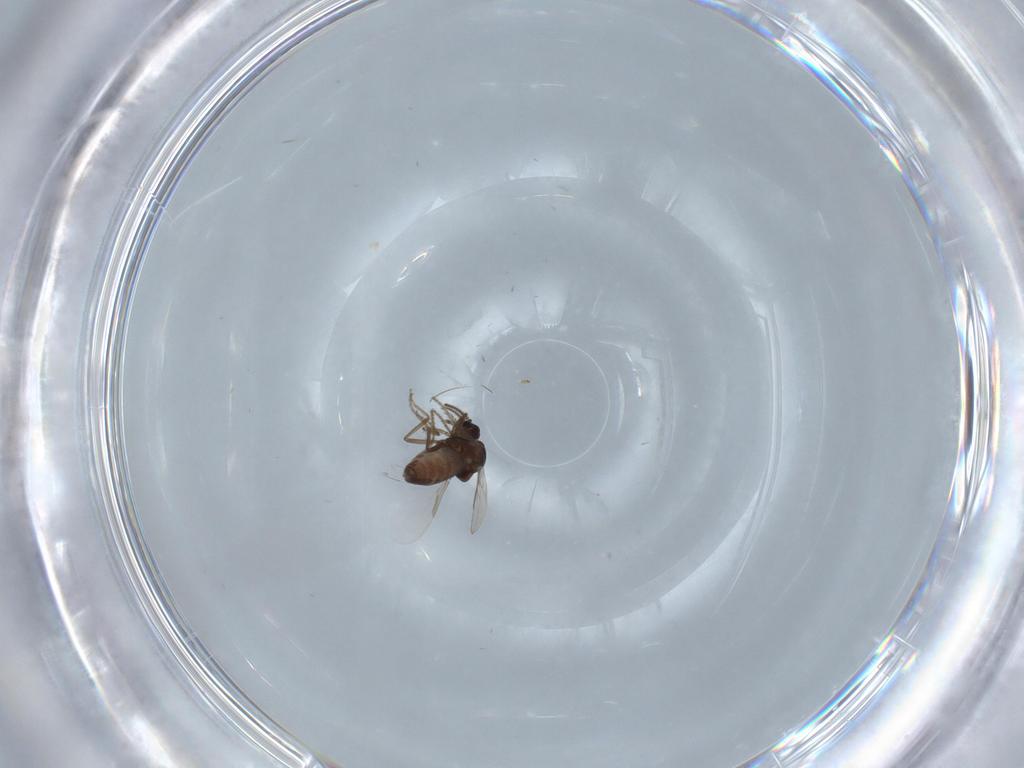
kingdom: Animalia
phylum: Arthropoda
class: Insecta
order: Diptera
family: Ceratopogonidae
